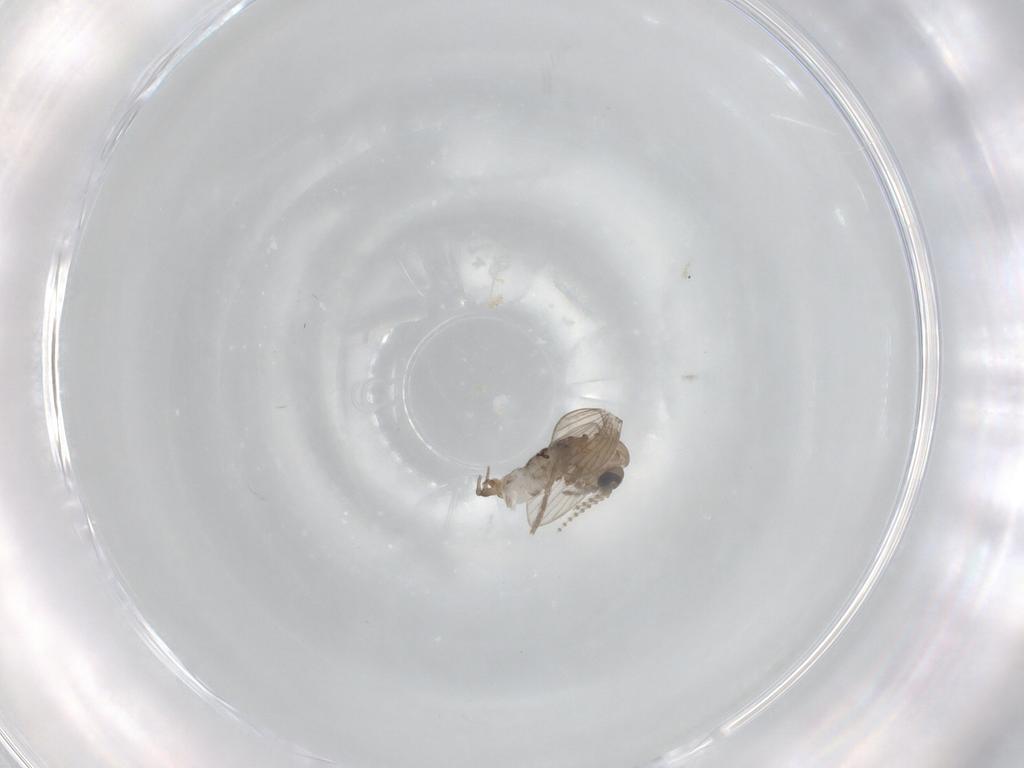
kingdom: Animalia
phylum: Arthropoda
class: Insecta
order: Diptera
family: Psychodidae
